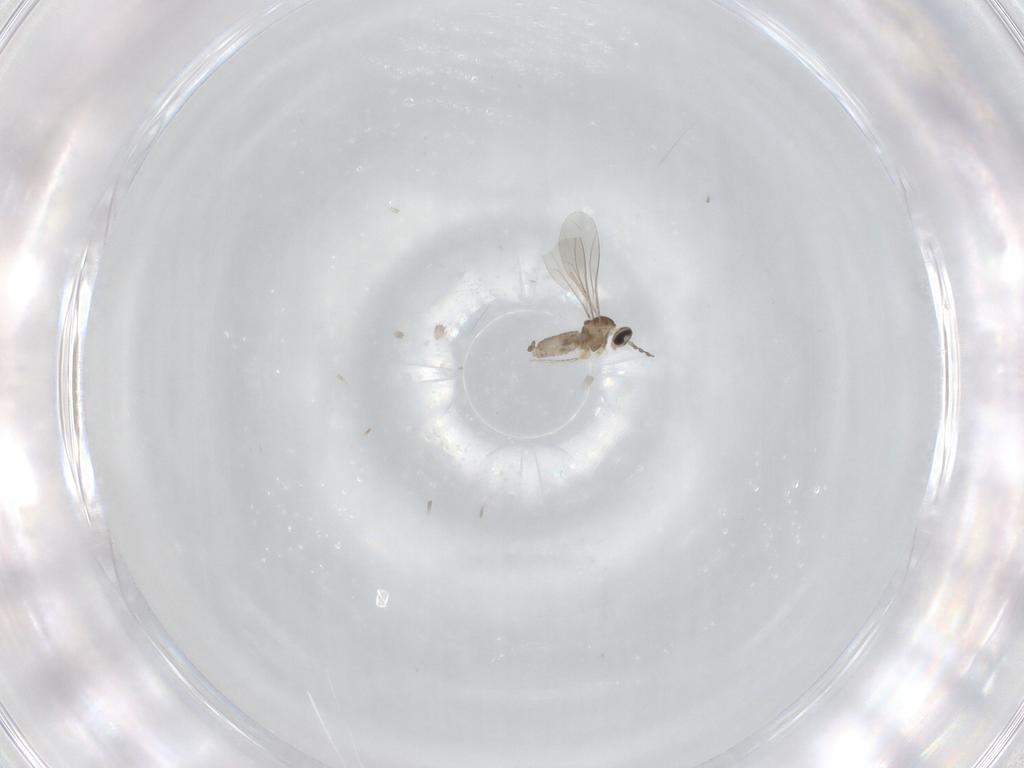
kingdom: Animalia
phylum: Arthropoda
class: Insecta
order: Diptera
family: Cecidomyiidae
